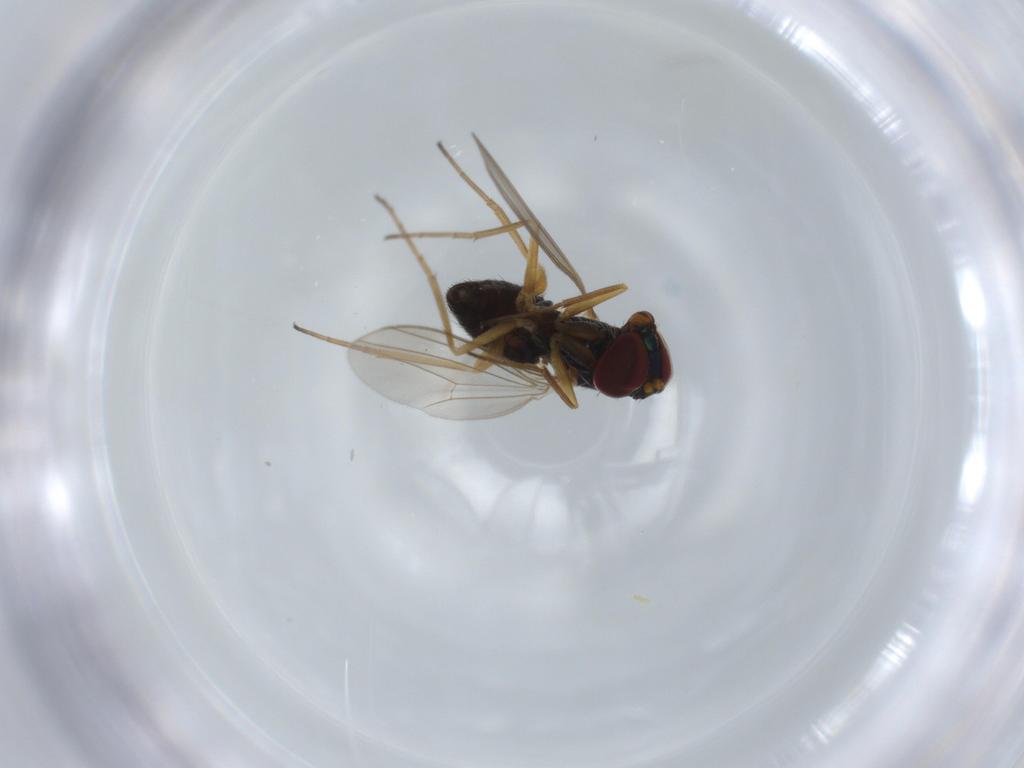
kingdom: Animalia
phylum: Arthropoda
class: Insecta
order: Diptera
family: Dolichopodidae
